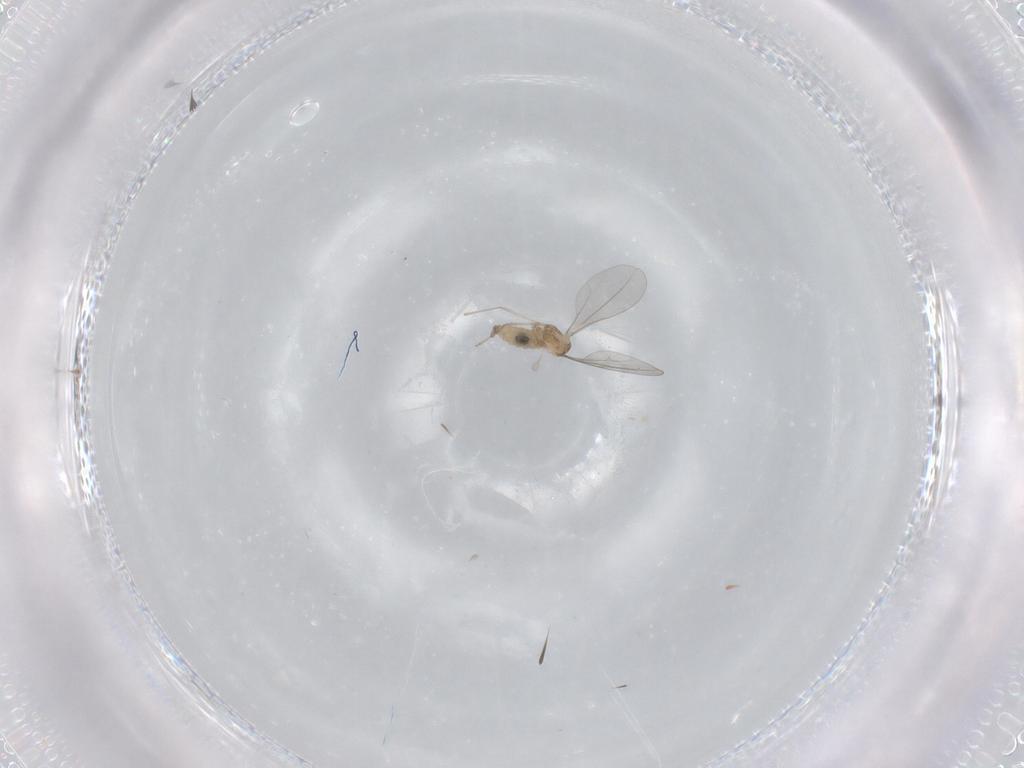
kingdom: Animalia
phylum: Arthropoda
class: Insecta
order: Diptera
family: Cecidomyiidae
